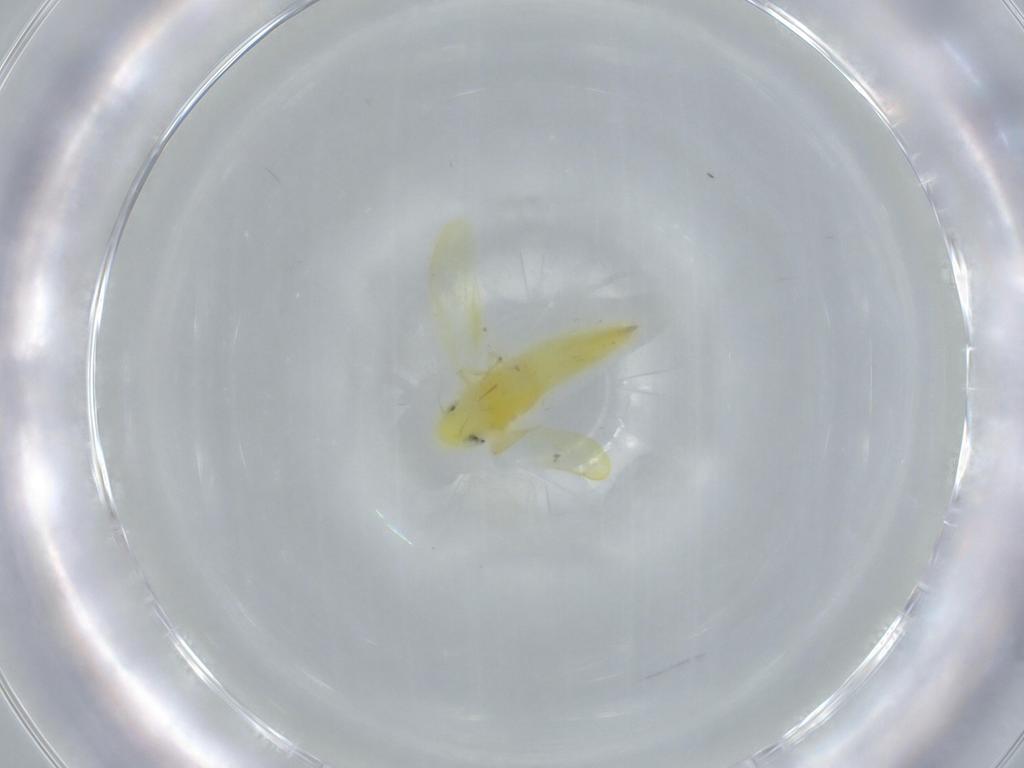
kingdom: Animalia
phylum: Arthropoda
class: Insecta
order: Hemiptera
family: Cicadellidae
